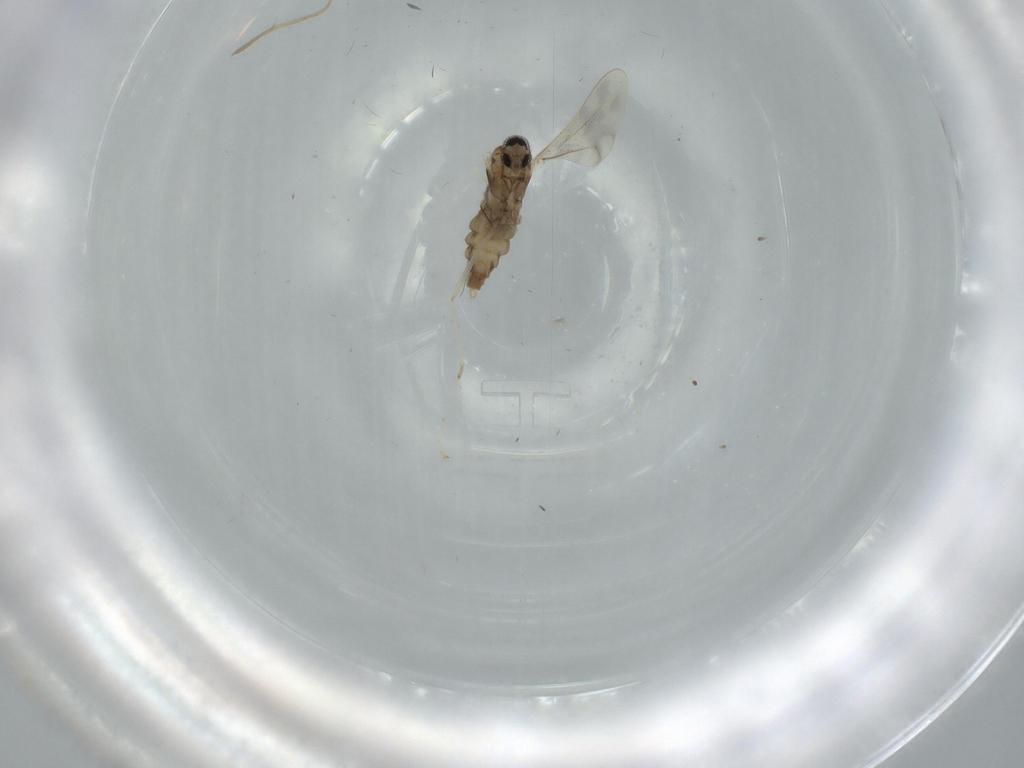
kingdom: Animalia
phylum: Arthropoda
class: Insecta
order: Diptera
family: Cecidomyiidae
